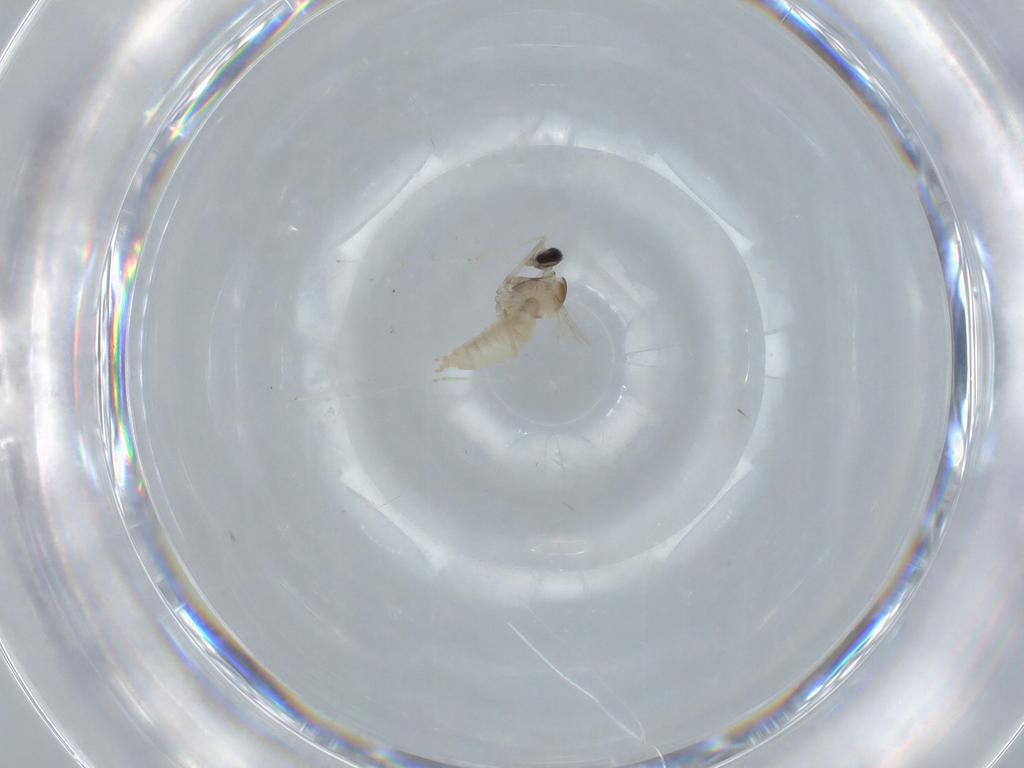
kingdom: Animalia
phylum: Arthropoda
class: Insecta
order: Diptera
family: Cecidomyiidae
